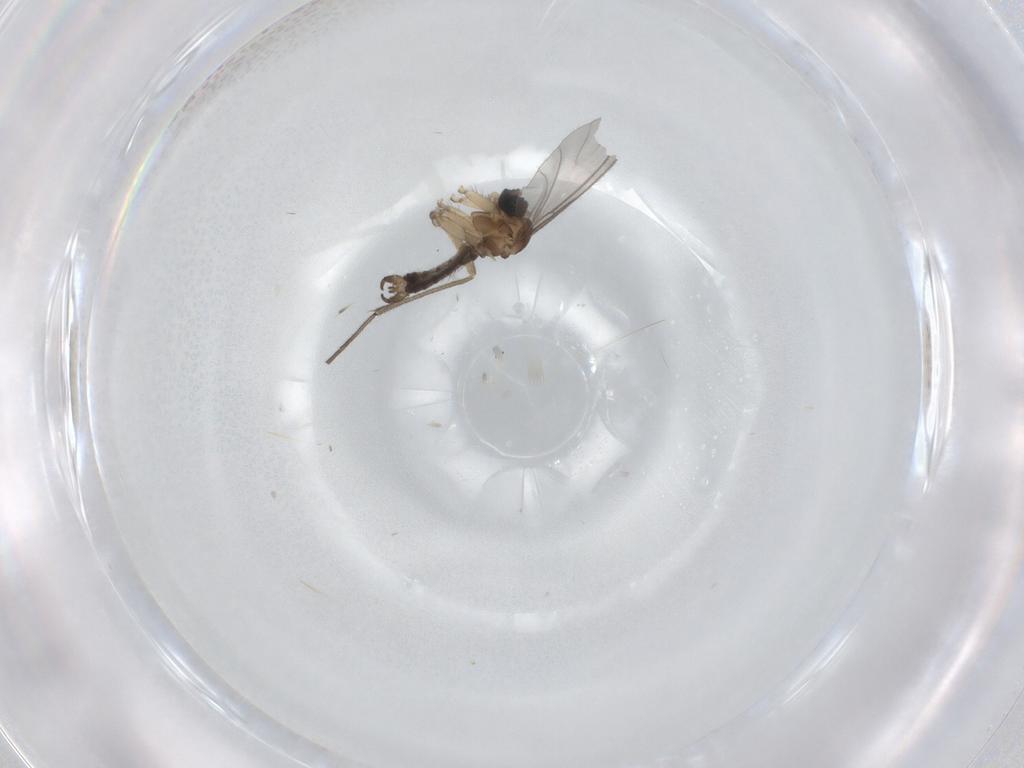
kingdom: Animalia
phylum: Arthropoda
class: Insecta
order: Diptera
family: Sciaridae
